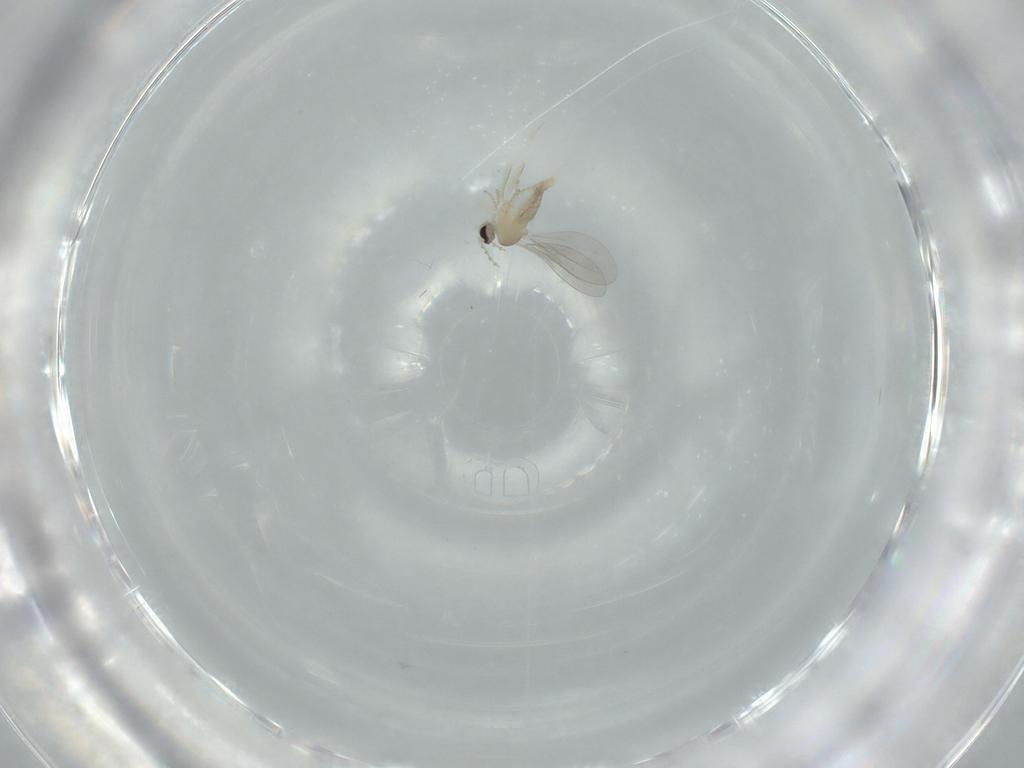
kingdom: Animalia
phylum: Arthropoda
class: Insecta
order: Diptera
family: Cecidomyiidae
